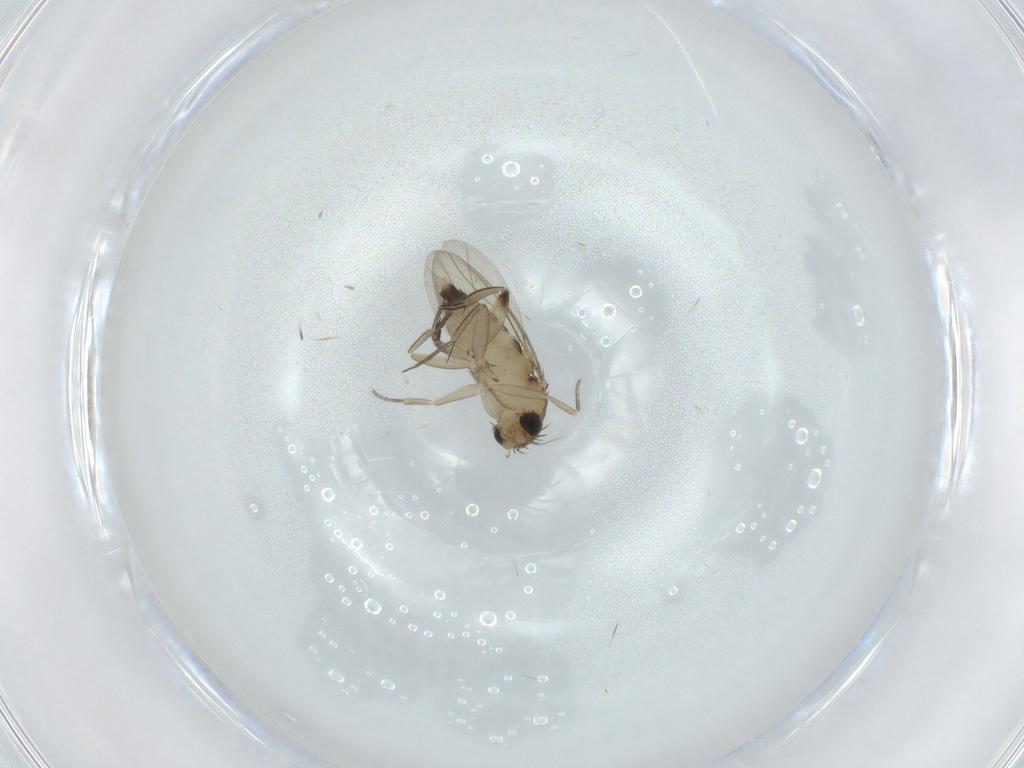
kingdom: Animalia
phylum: Arthropoda
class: Insecta
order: Diptera
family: Phoridae
